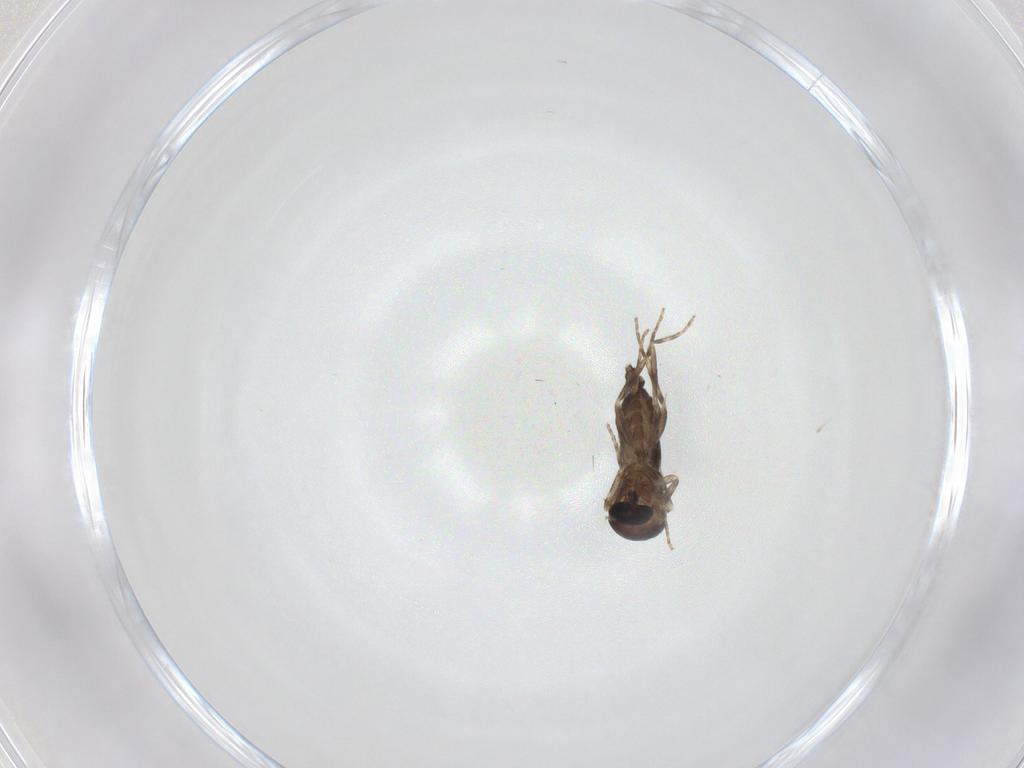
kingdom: Animalia
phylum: Arthropoda
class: Insecta
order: Diptera
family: Ceratopogonidae
